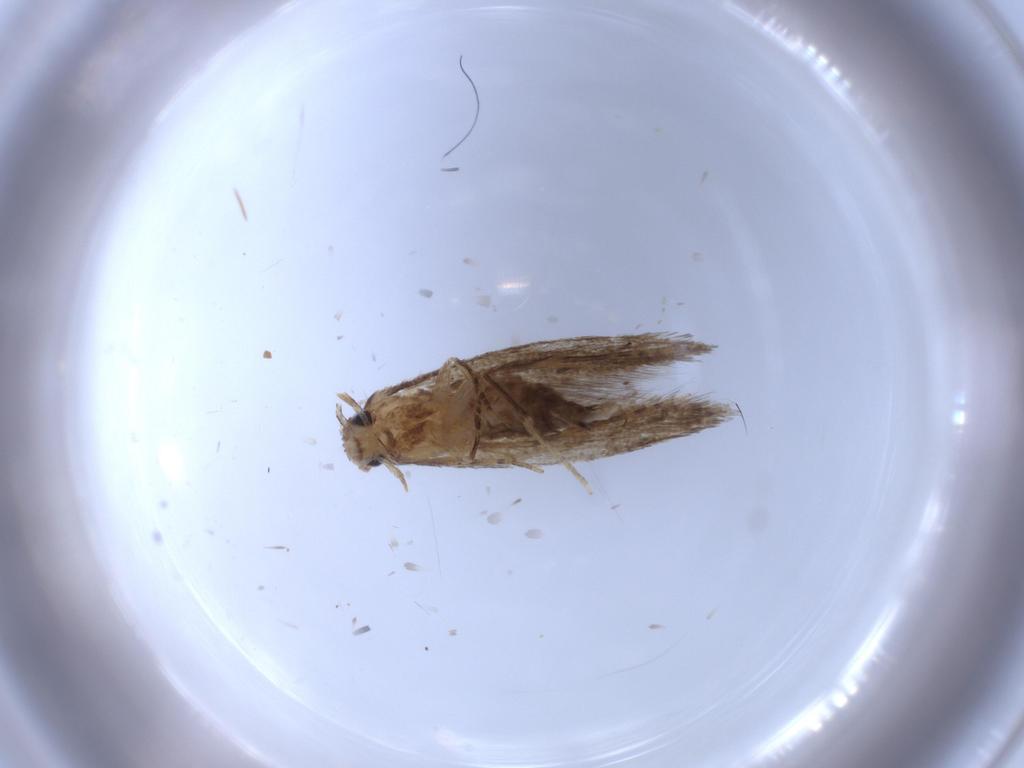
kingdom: Animalia
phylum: Arthropoda
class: Insecta
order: Lepidoptera
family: Tineidae
